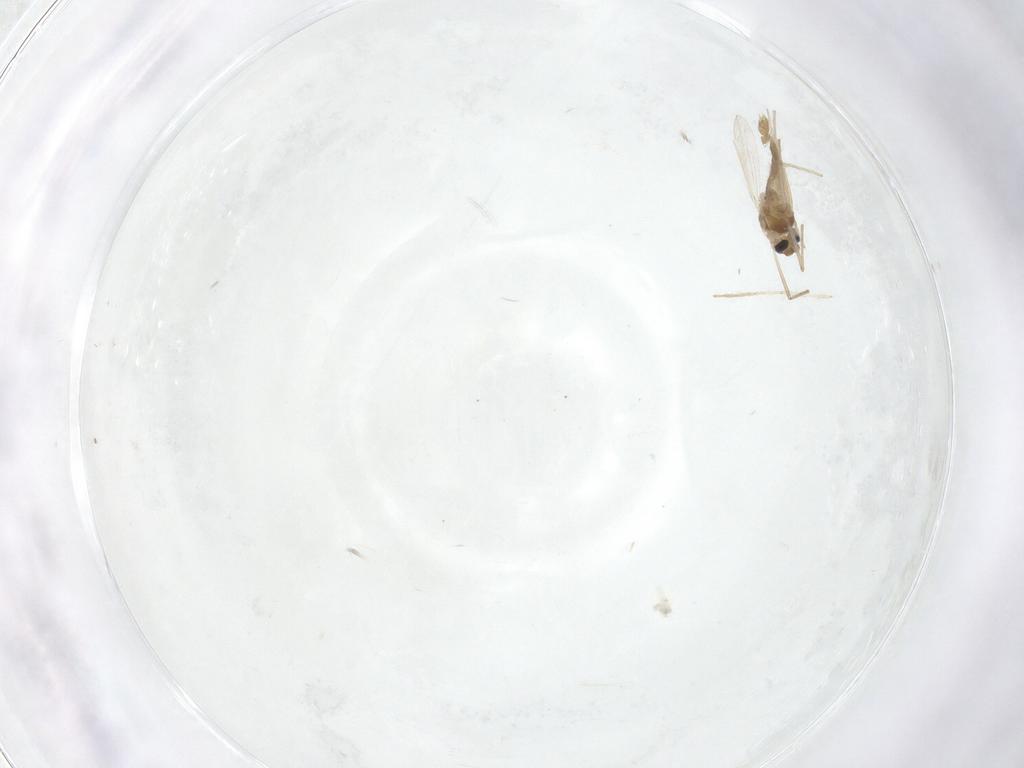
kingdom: Animalia
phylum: Arthropoda
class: Insecta
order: Diptera
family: Chironomidae
